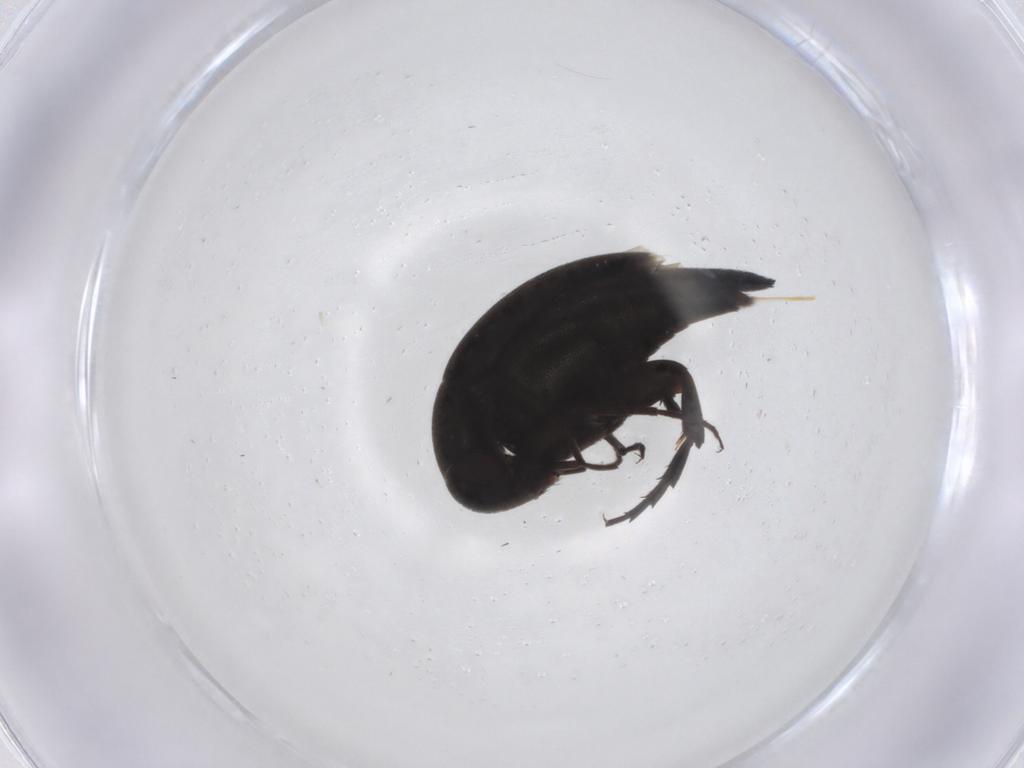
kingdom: Animalia
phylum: Arthropoda
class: Insecta
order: Coleoptera
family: Mordellidae
